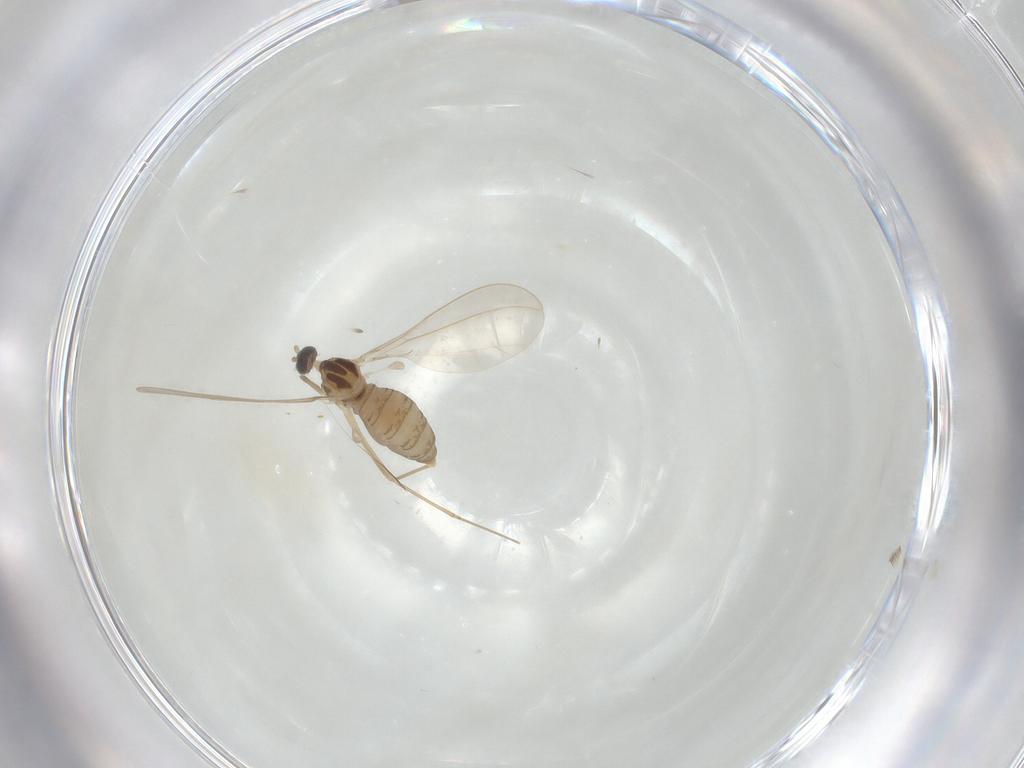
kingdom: Animalia
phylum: Arthropoda
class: Insecta
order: Diptera
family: Cecidomyiidae
